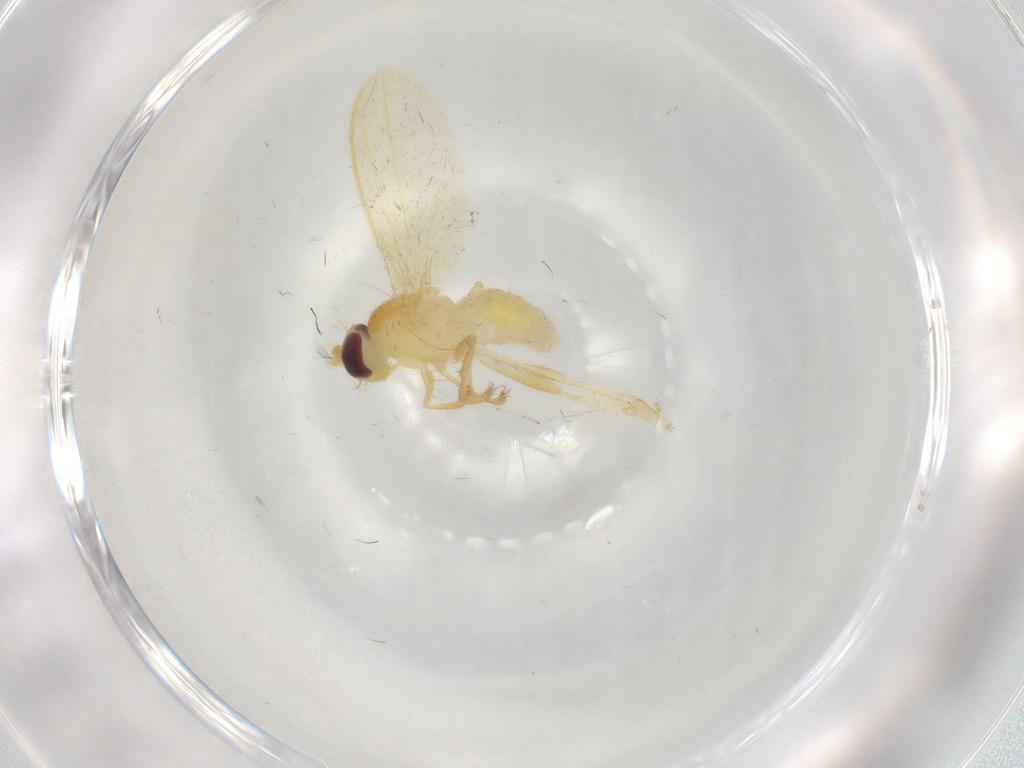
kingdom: Animalia
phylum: Arthropoda
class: Insecta
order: Diptera
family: Periscelididae
